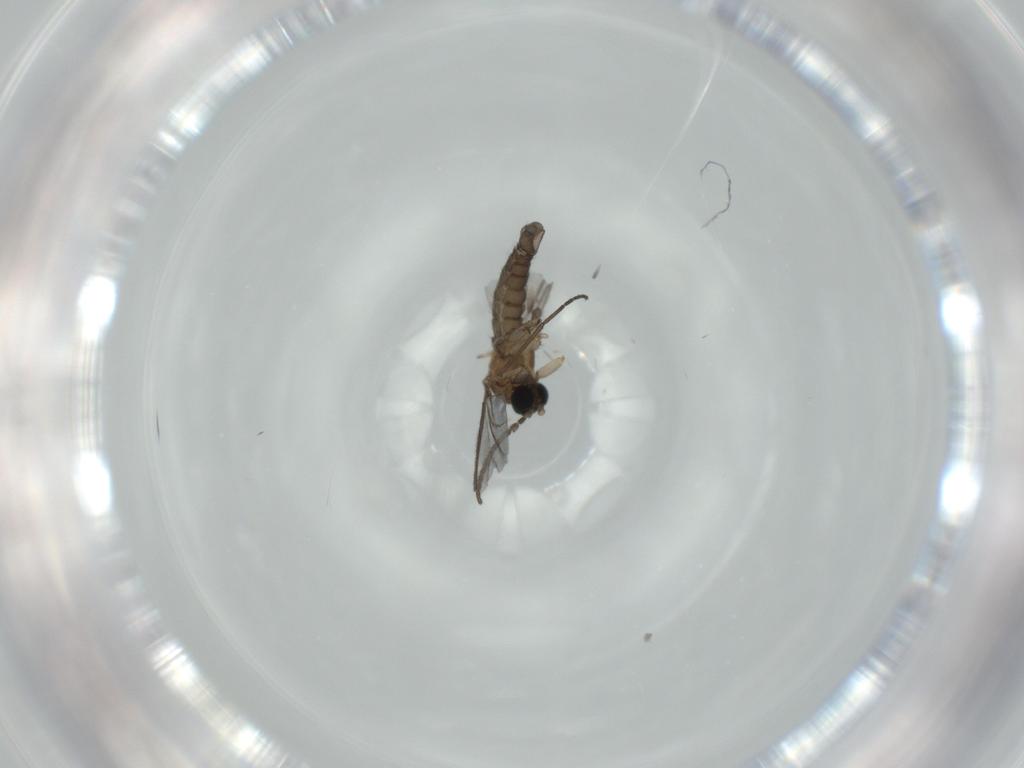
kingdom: Animalia
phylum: Arthropoda
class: Insecta
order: Diptera
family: Sciaridae
